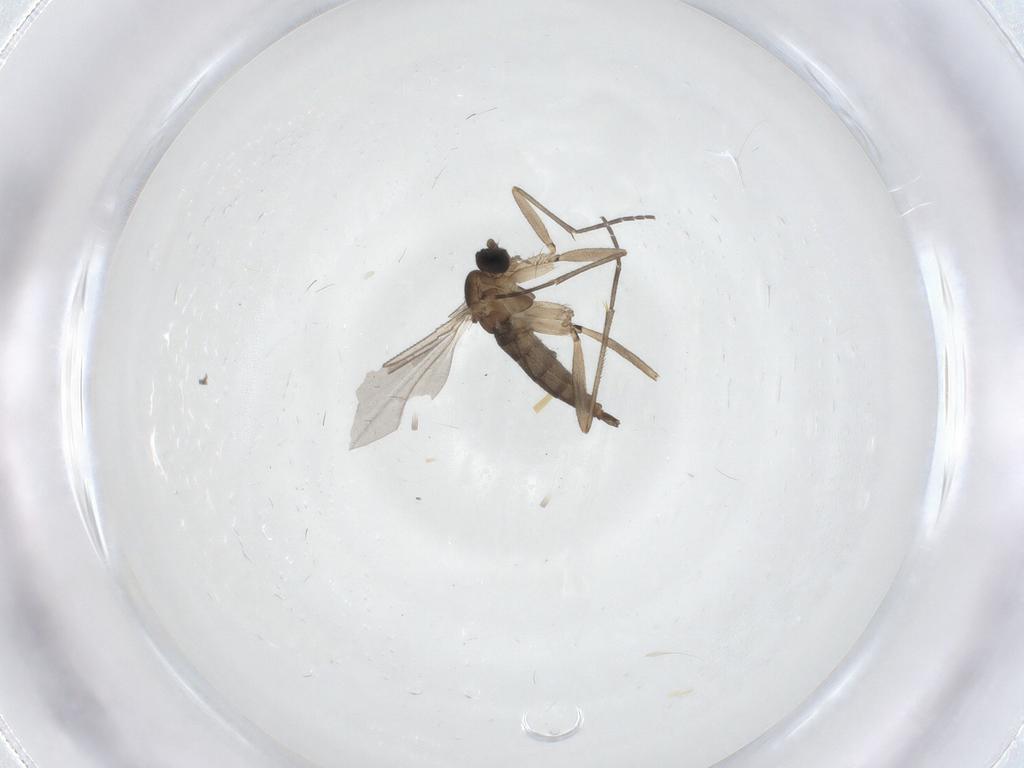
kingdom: Animalia
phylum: Arthropoda
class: Insecta
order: Diptera
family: Sciaridae
